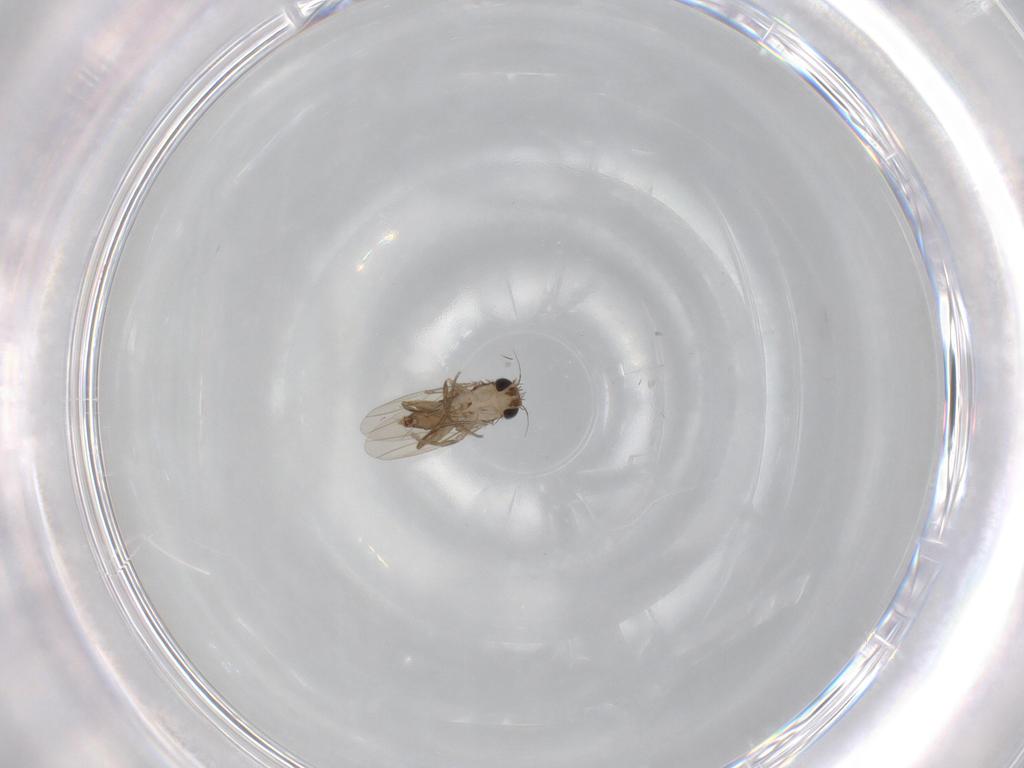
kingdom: Animalia
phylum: Arthropoda
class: Insecta
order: Diptera
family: Phoridae
